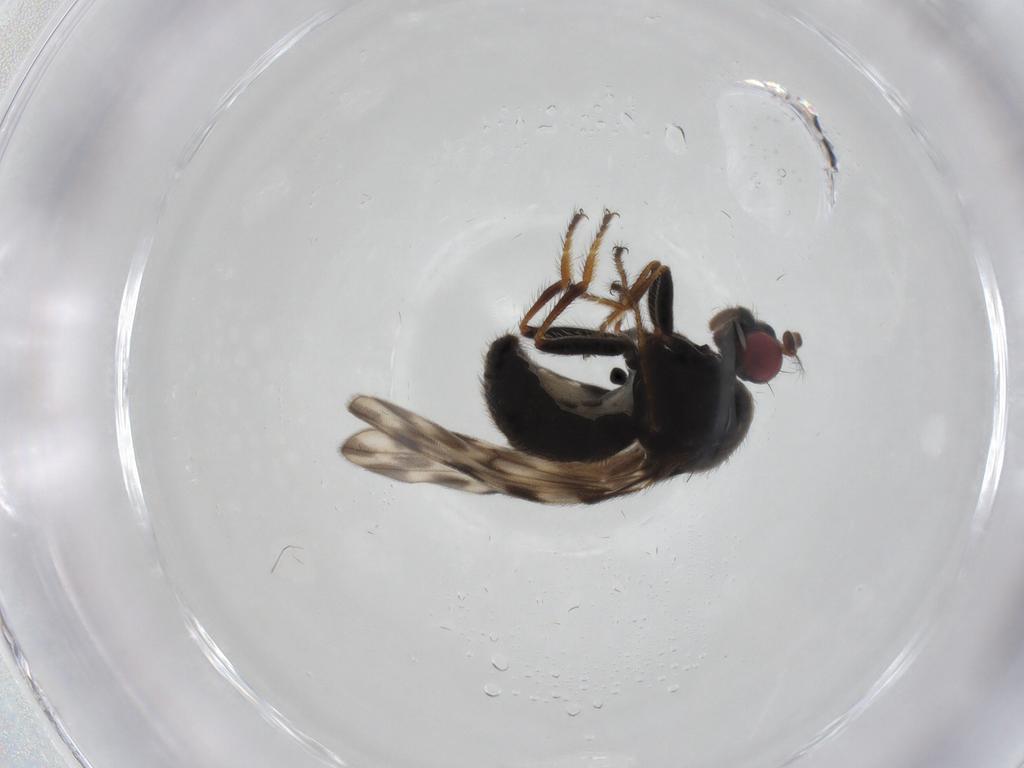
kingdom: Animalia
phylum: Arthropoda
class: Insecta
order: Diptera
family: Ephydridae
